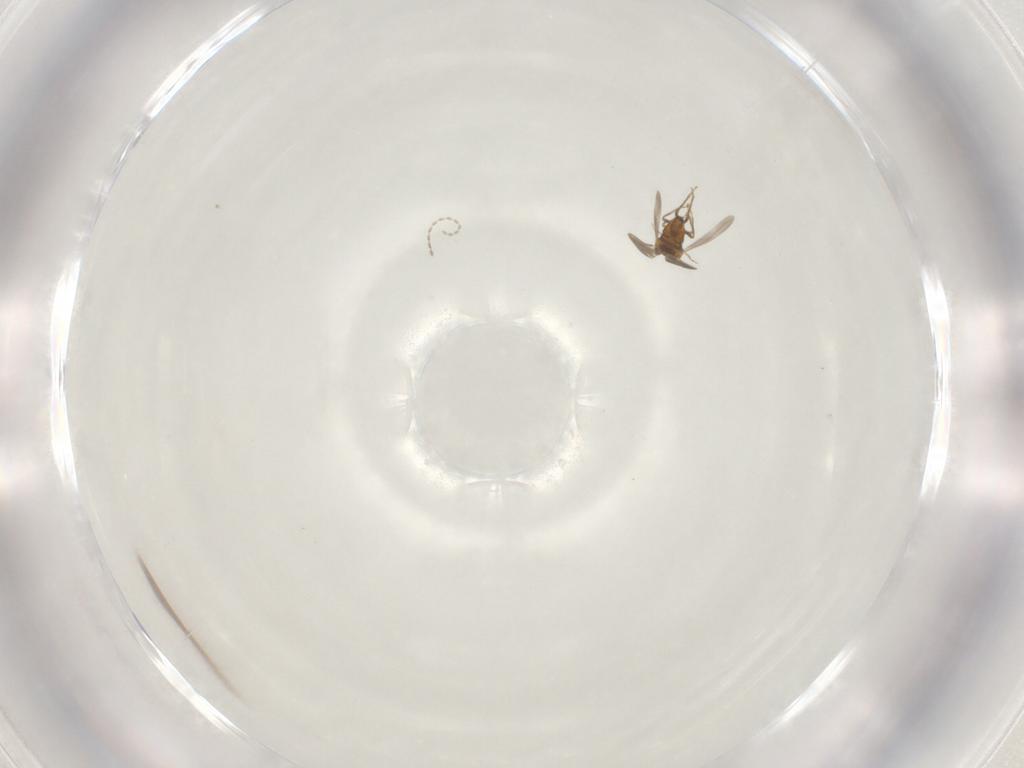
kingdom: Animalia
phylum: Arthropoda
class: Insecta
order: Hemiptera
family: Aleyrodidae
